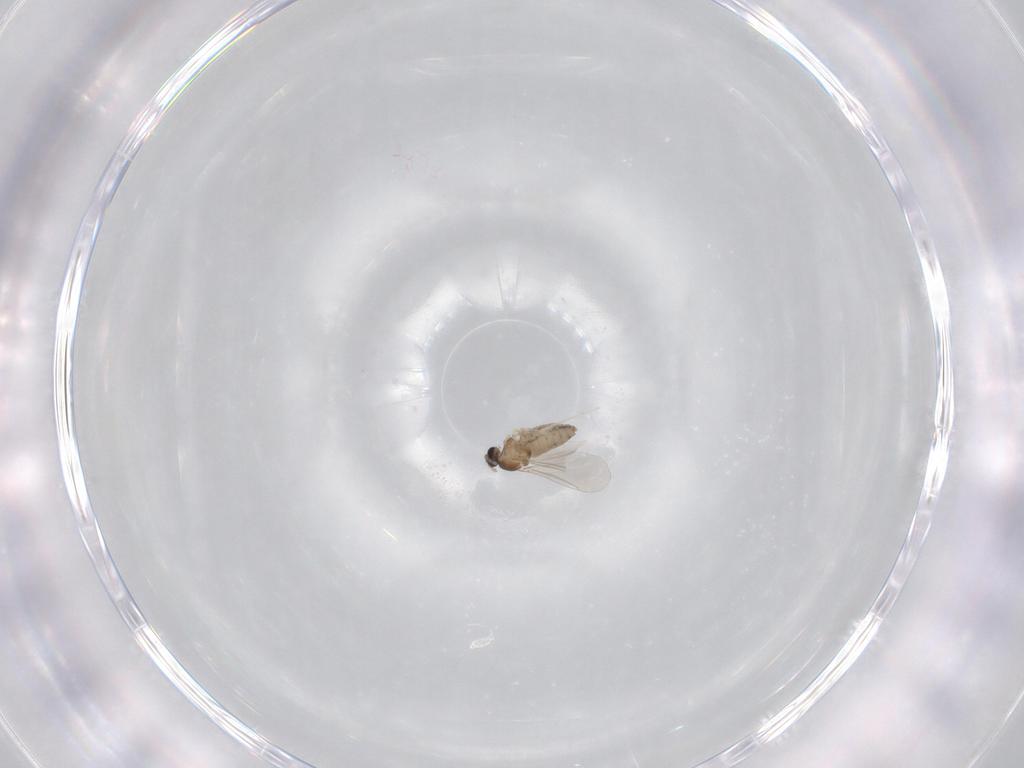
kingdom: Animalia
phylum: Arthropoda
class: Insecta
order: Diptera
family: Cecidomyiidae
